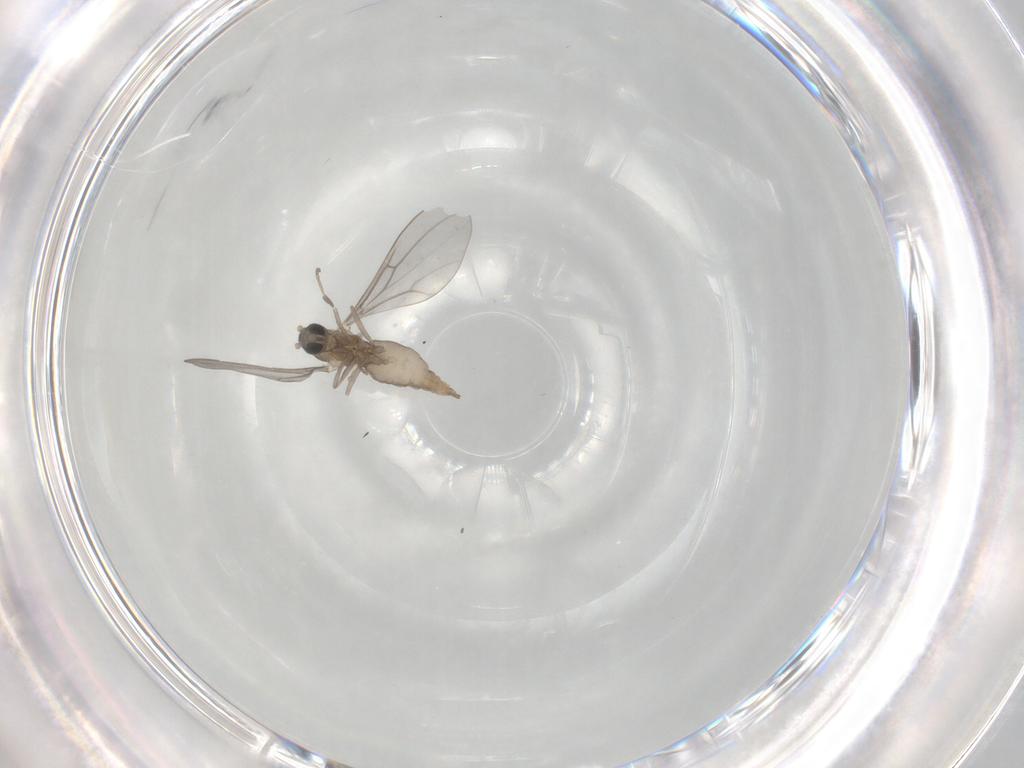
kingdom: Animalia
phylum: Arthropoda
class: Insecta
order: Diptera
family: Cecidomyiidae
